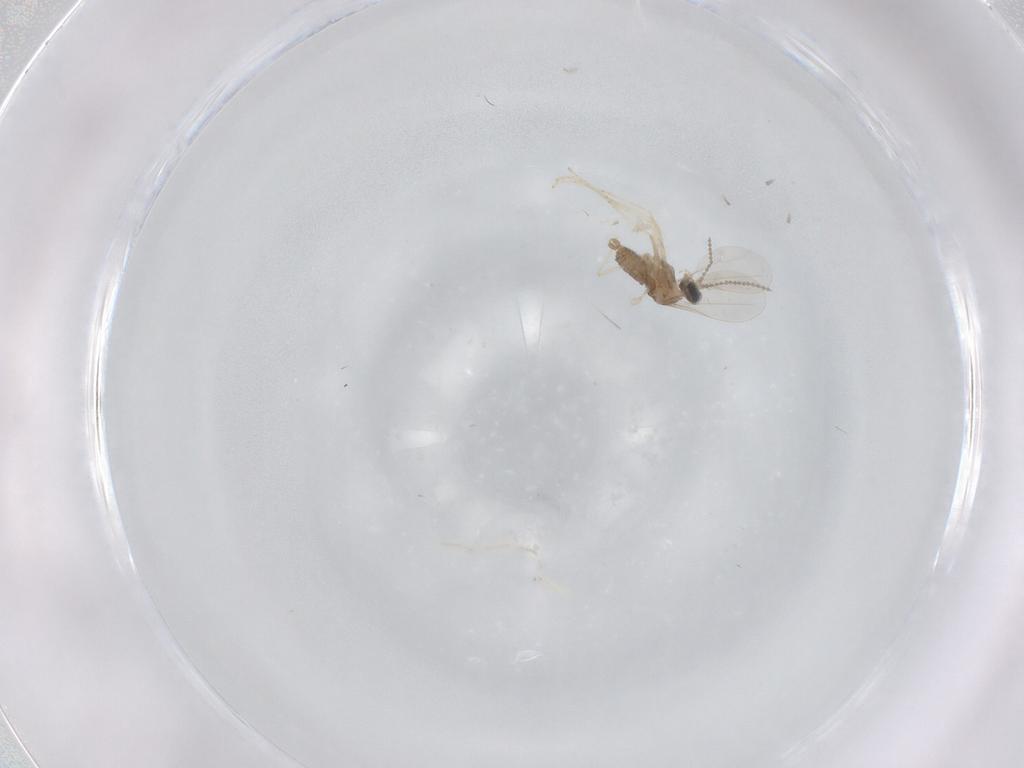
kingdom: Animalia
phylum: Arthropoda
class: Insecta
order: Diptera
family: Cecidomyiidae
